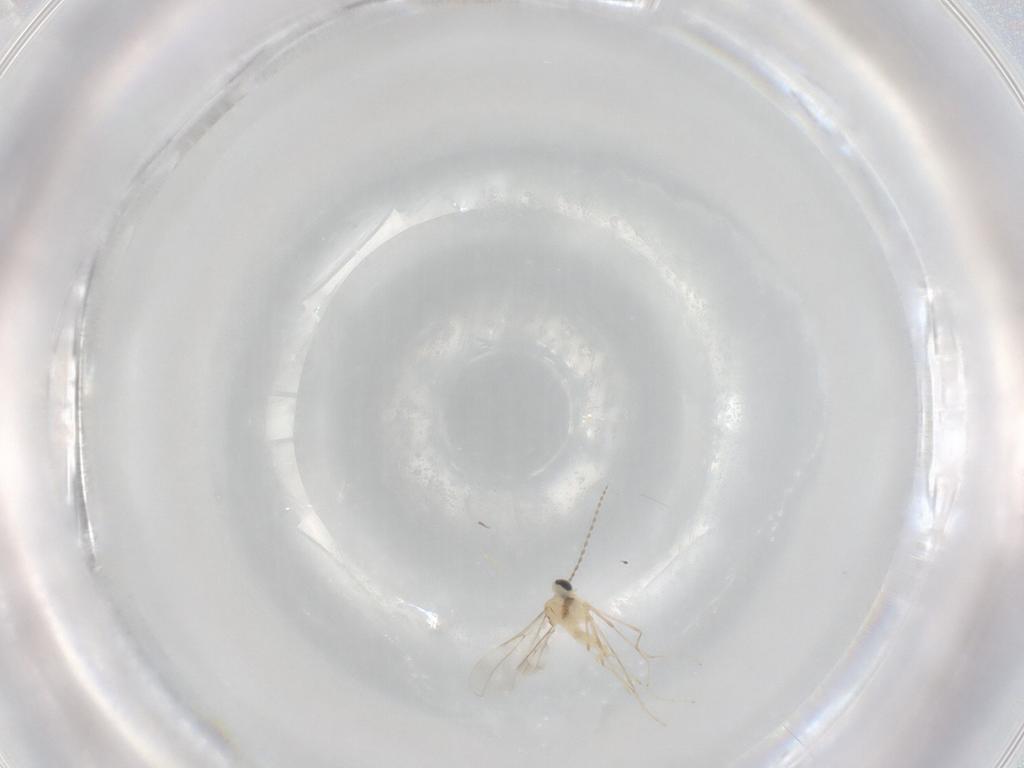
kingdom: Animalia
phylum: Arthropoda
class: Insecta
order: Diptera
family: Cecidomyiidae
